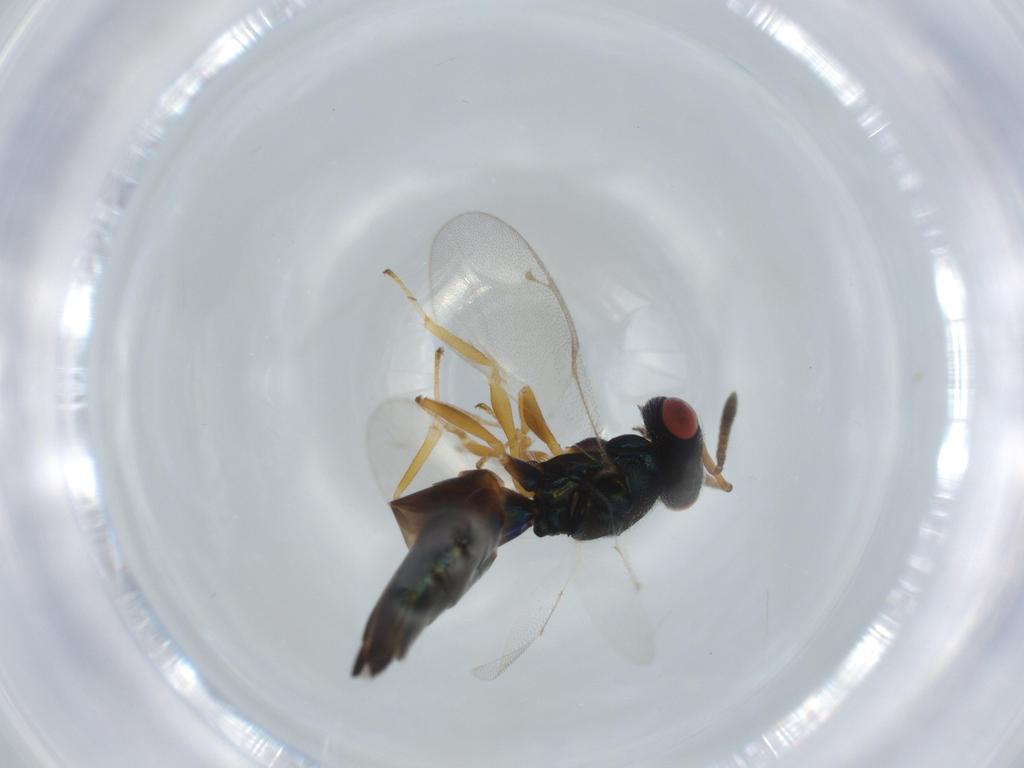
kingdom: Animalia
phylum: Arthropoda
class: Insecta
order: Hymenoptera
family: Pteromalidae
